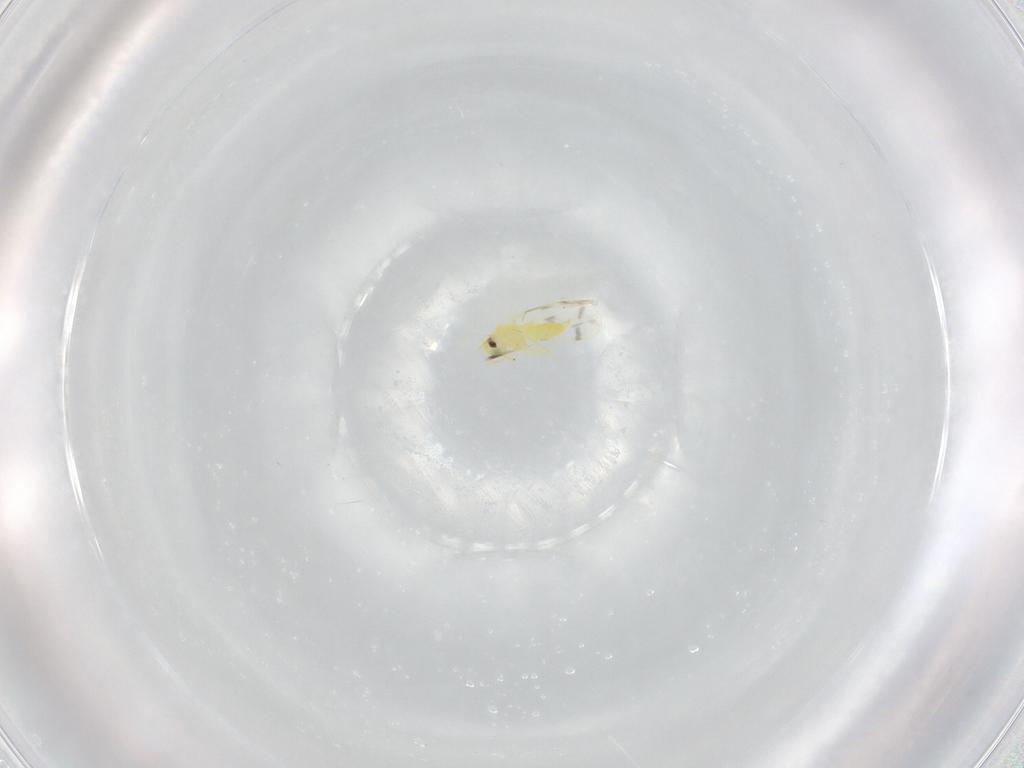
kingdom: Animalia
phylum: Arthropoda
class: Insecta
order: Hemiptera
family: Aleyrodidae
